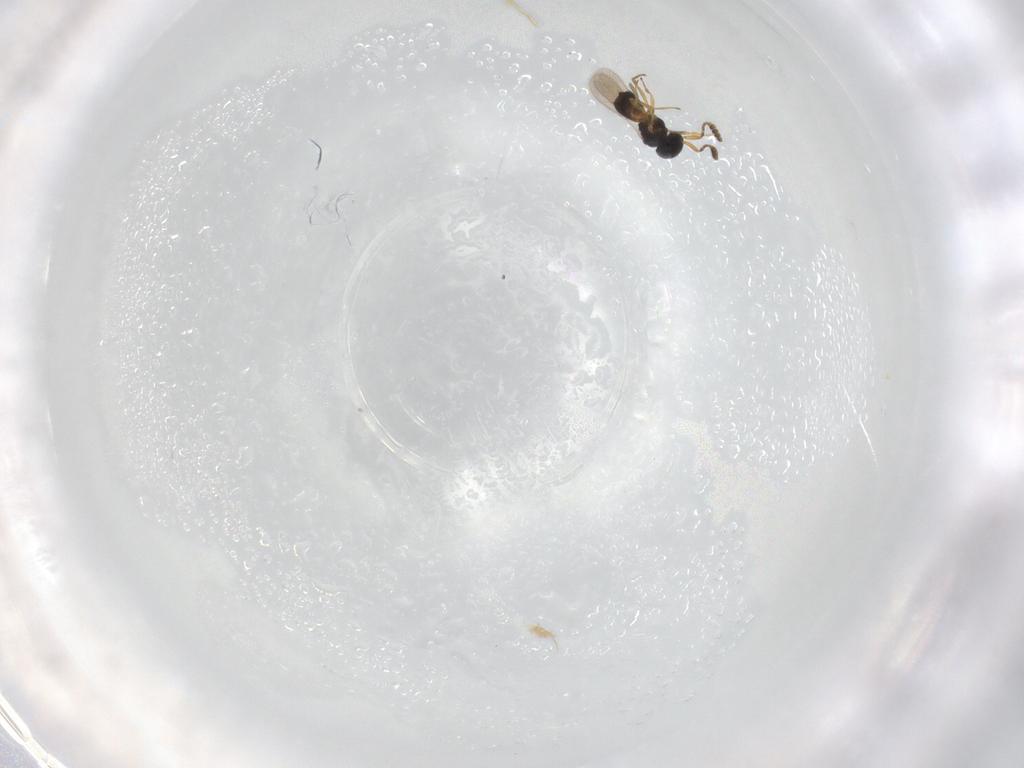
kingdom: Animalia
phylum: Arthropoda
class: Insecta
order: Hymenoptera
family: Scelionidae
